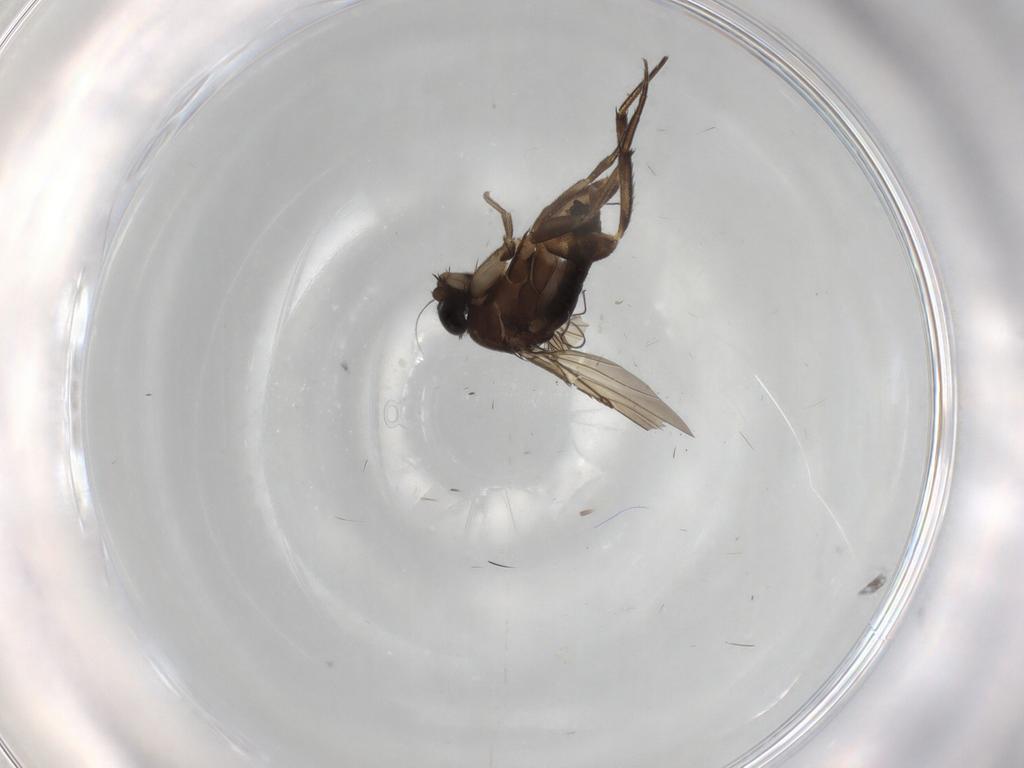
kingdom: Animalia
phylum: Arthropoda
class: Insecta
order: Diptera
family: Phoridae
